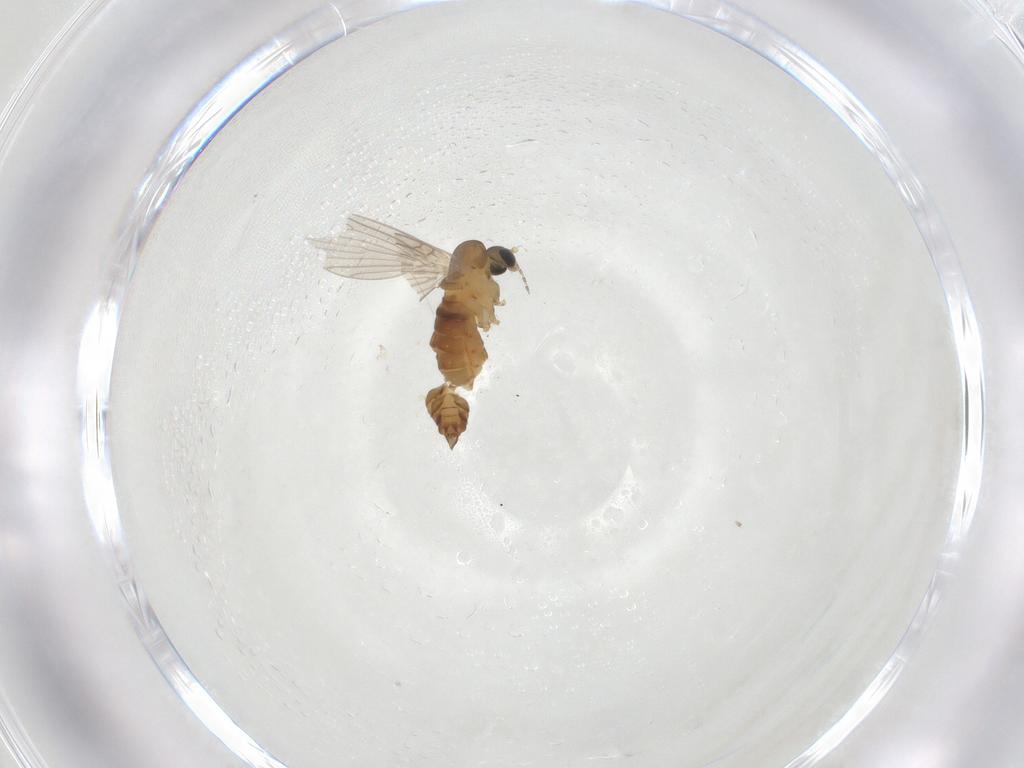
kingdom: Animalia
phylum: Arthropoda
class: Insecta
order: Diptera
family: Psychodidae
